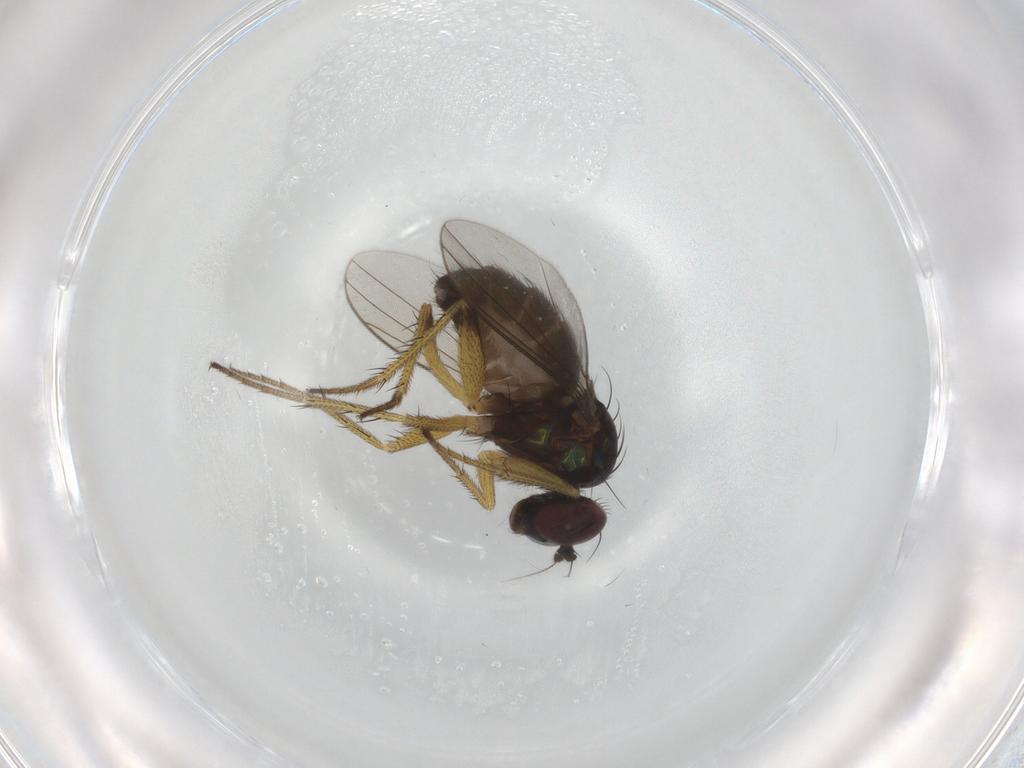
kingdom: Animalia
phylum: Arthropoda
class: Insecta
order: Diptera
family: Dolichopodidae
